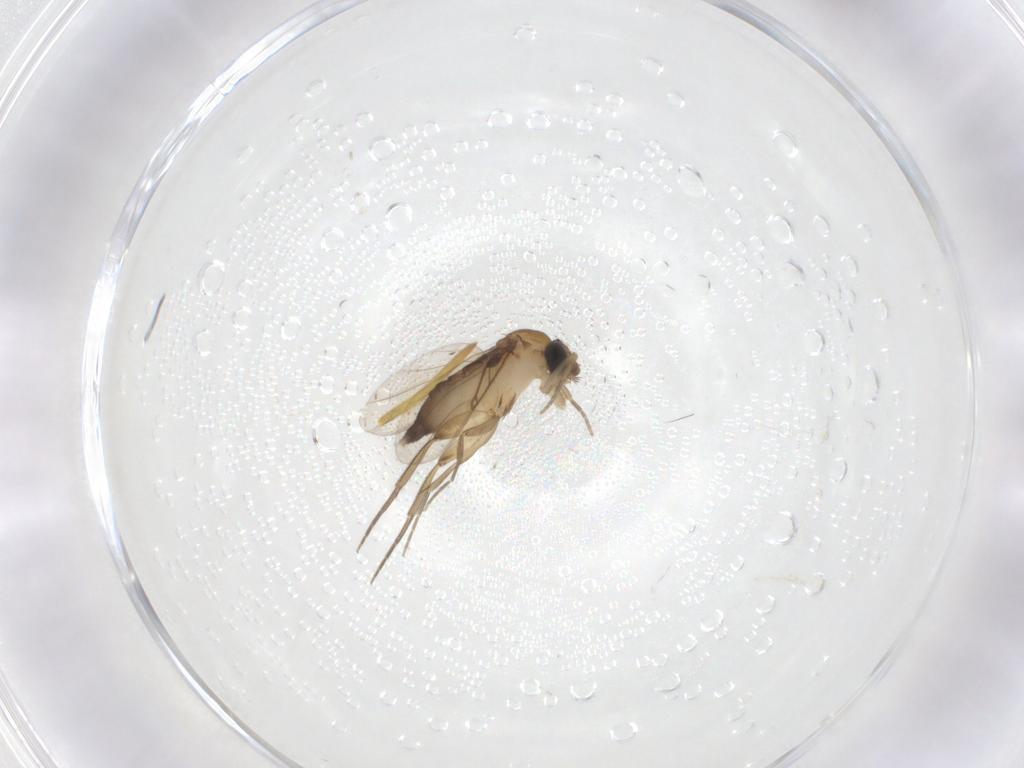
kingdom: Animalia
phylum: Arthropoda
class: Insecta
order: Diptera
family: Phoridae
